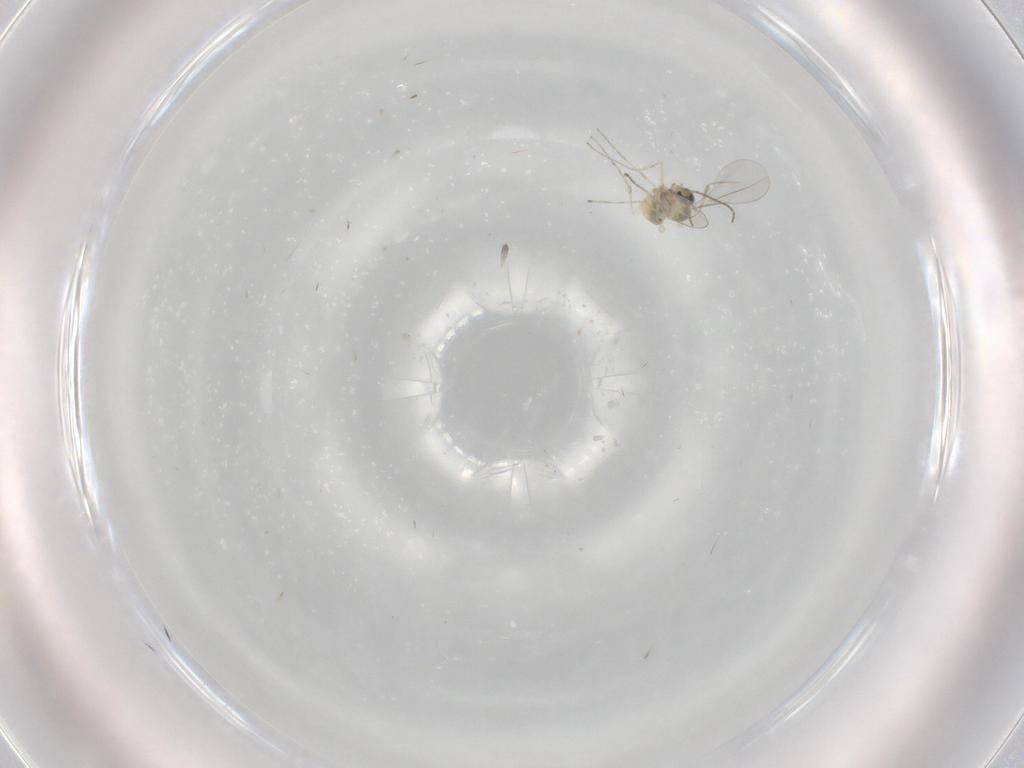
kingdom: Animalia
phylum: Arthropoda
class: Insecta
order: Diptera
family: Cecidomyiidae
